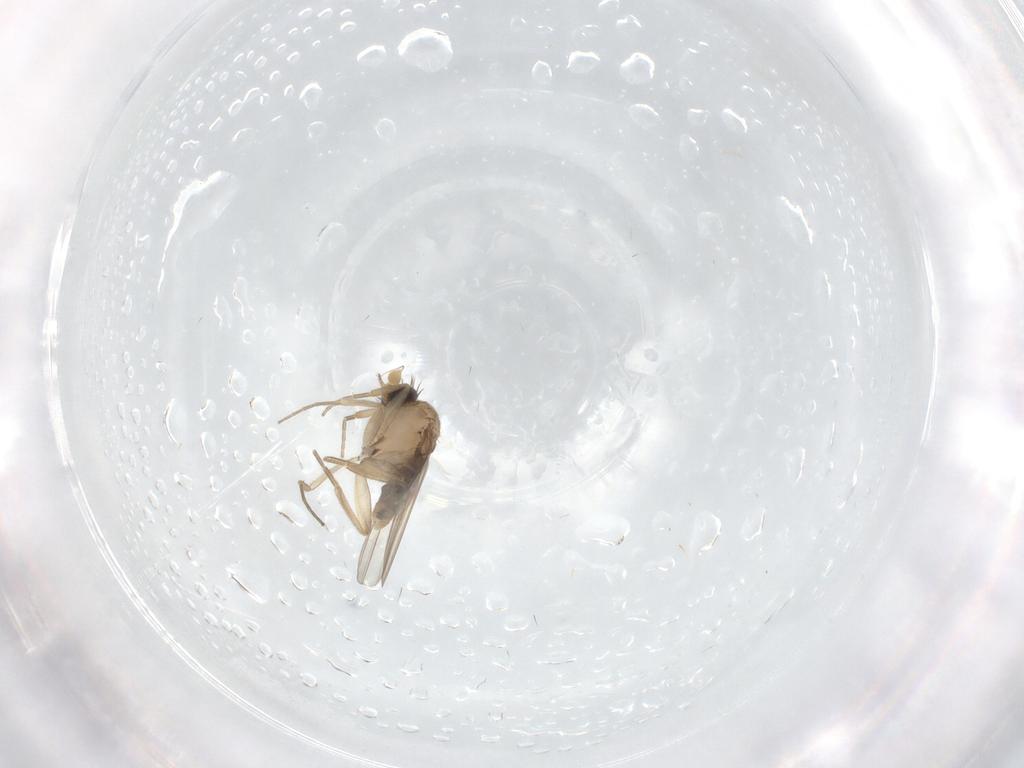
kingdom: Animalia
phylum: Arthropoda
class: Insecta
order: Diptera
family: Phoridae
